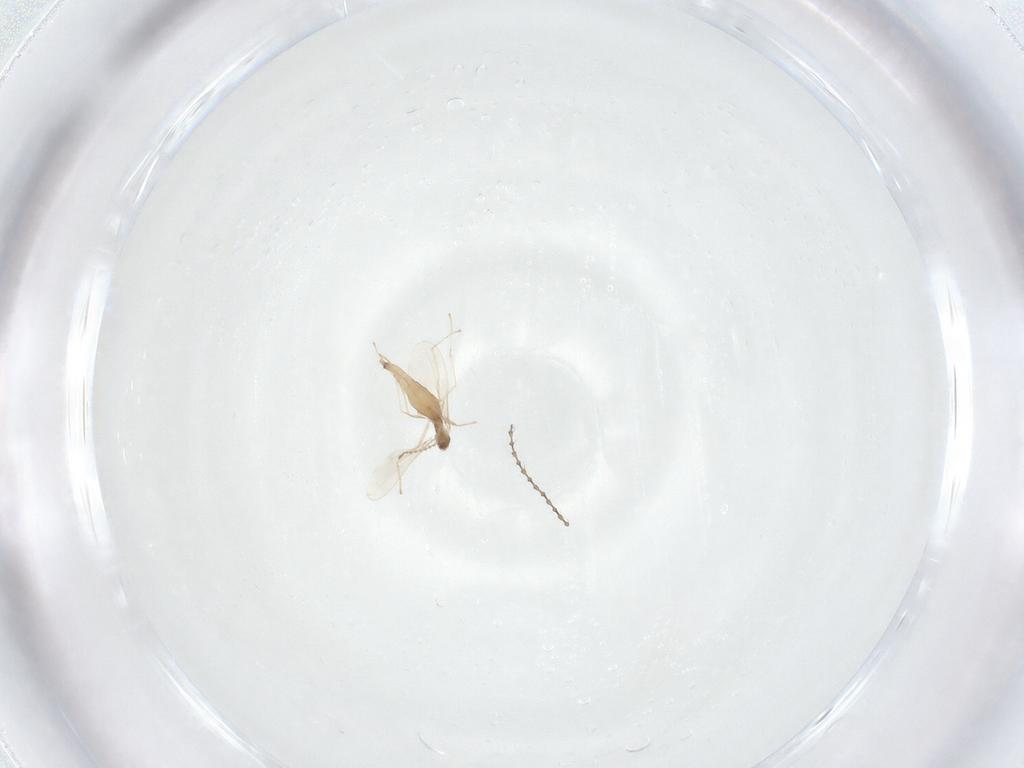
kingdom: Animalia
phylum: Arthropoda
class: Insecta
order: Diptera
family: Cecidomyiidae
